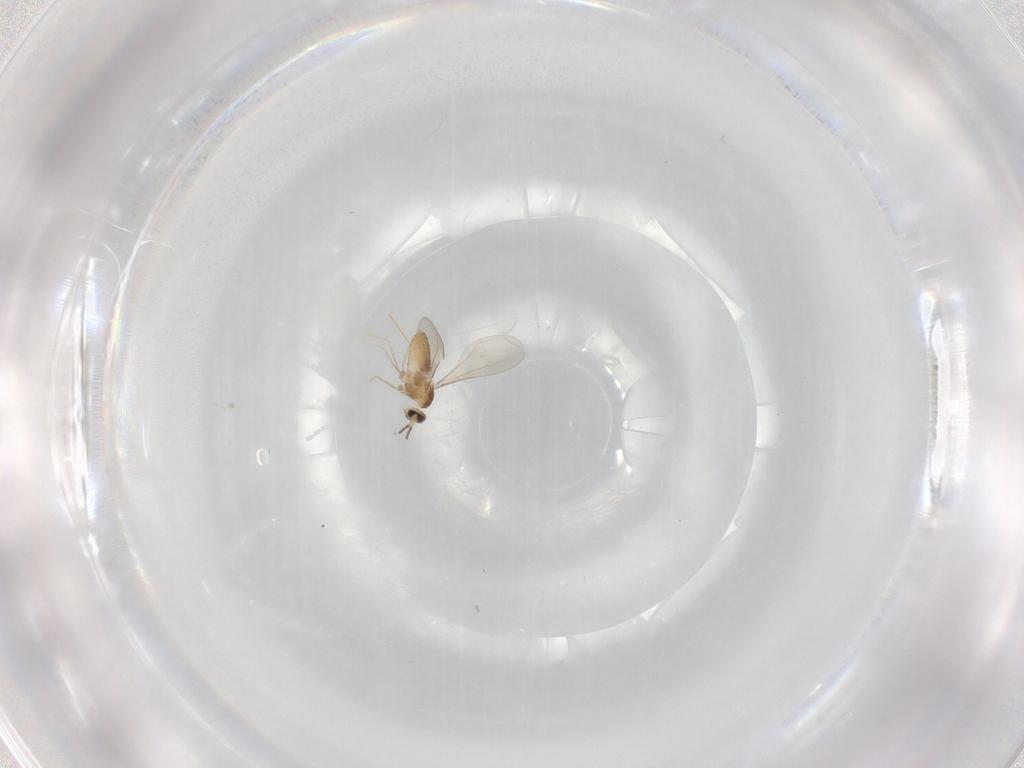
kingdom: Animalia
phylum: Arthropoda
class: Insecta
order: Diptera
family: Cecidomyiidae
